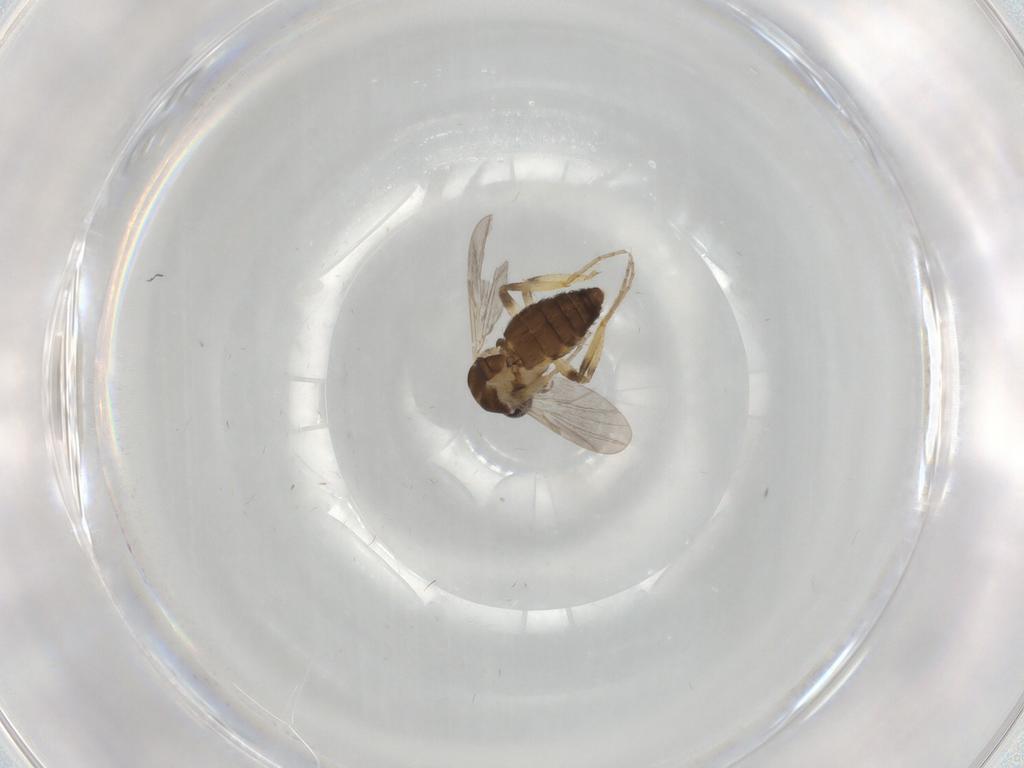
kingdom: Animalia
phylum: Arthropoda
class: Insecta
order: Diptera
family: Ceratopogonidae
